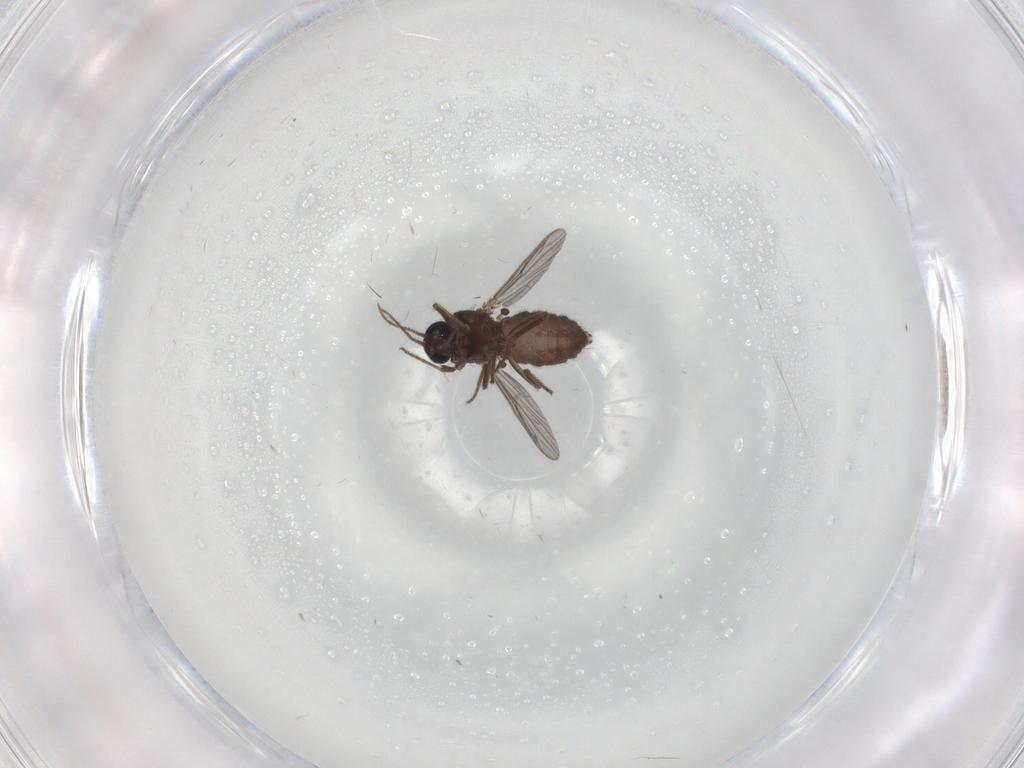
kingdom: Animalia
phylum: Arthropoda
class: Insecta
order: Diptera
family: Ceratopogonidae
